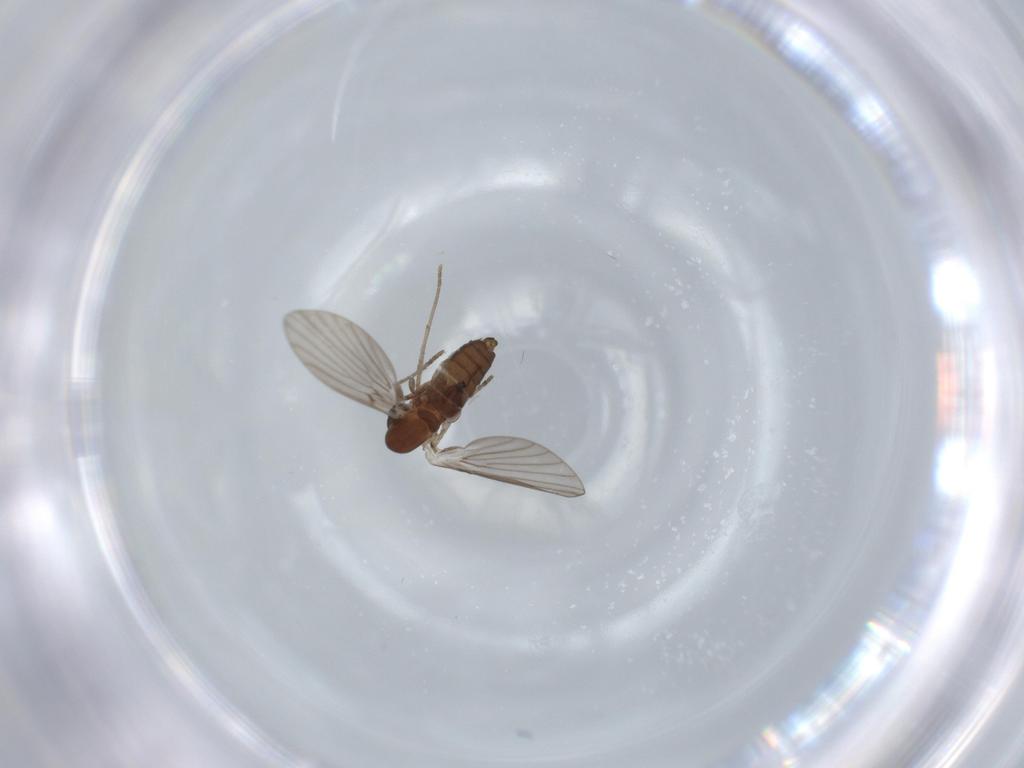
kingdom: Animalia
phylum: Arthropoda
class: Insecta
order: Diptera
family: Psychodidae
